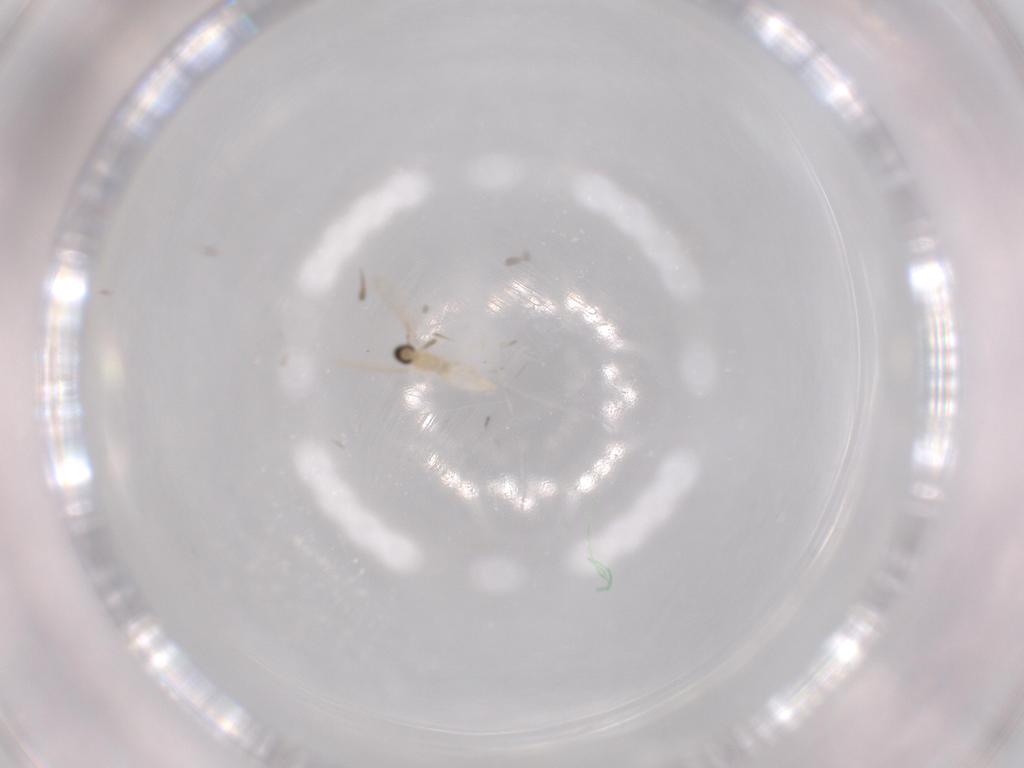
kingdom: Animalia
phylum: Arthropoda
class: Insecta
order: Diptera
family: Cecidomyiidae
